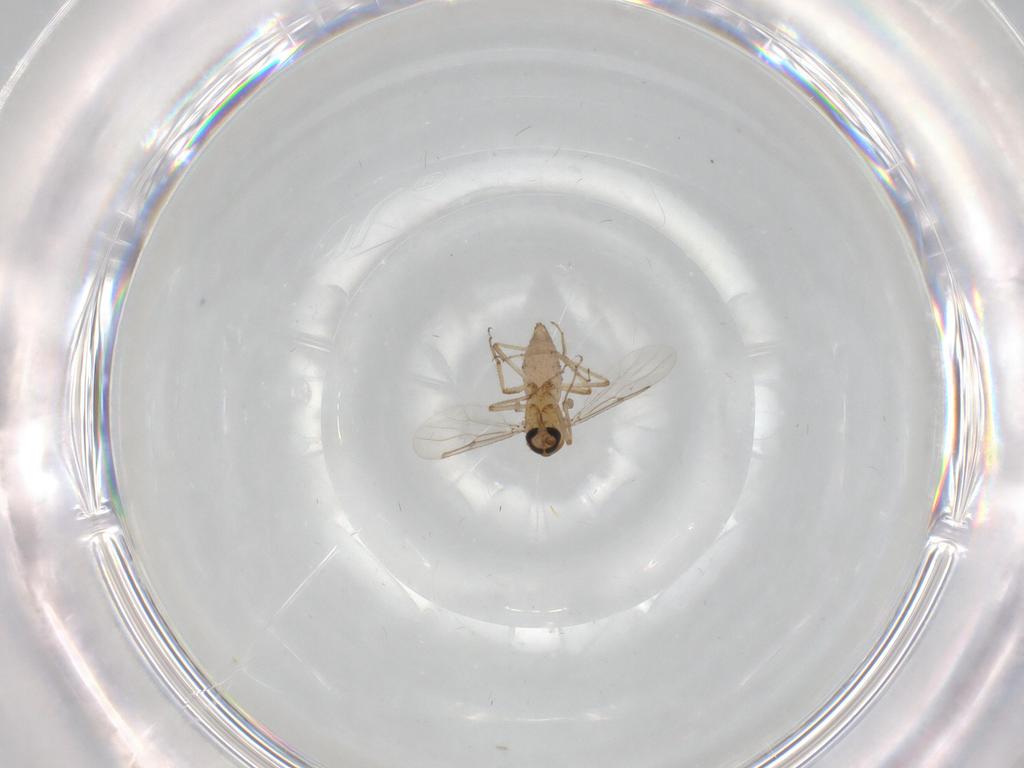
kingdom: Animalia
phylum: Arthropoda
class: Insecta
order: Diptera
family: Ceratopogonidae
